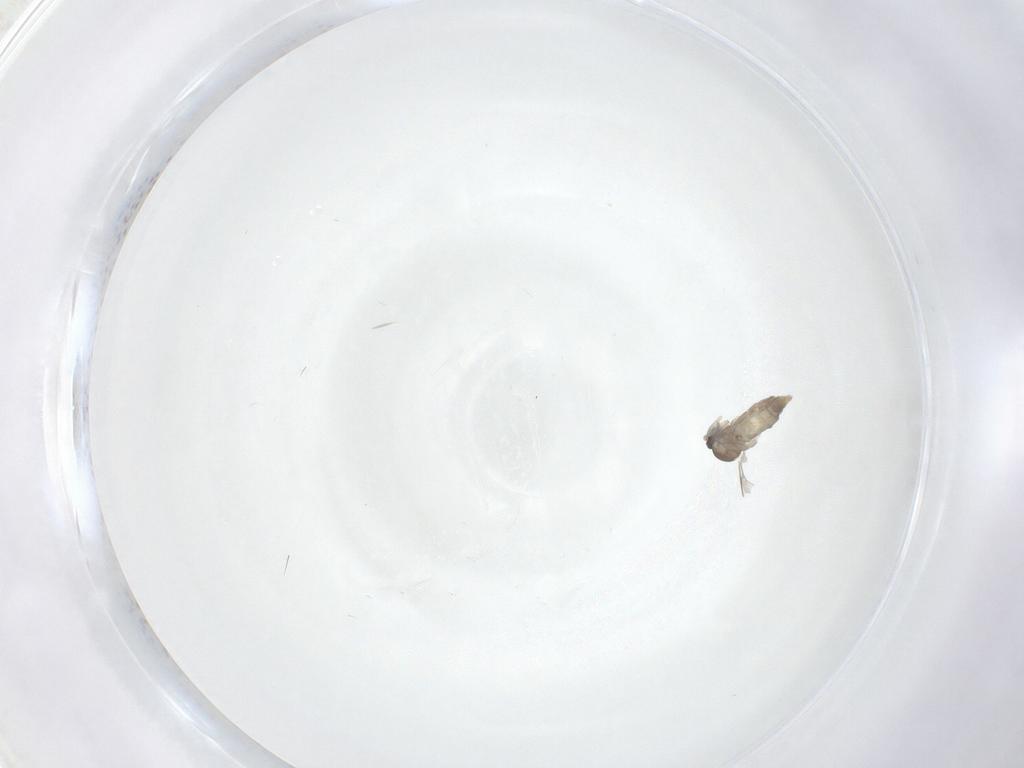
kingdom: Animalia
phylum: Arthropoda
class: Insecta
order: Diptera
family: Cecidomyiidae
